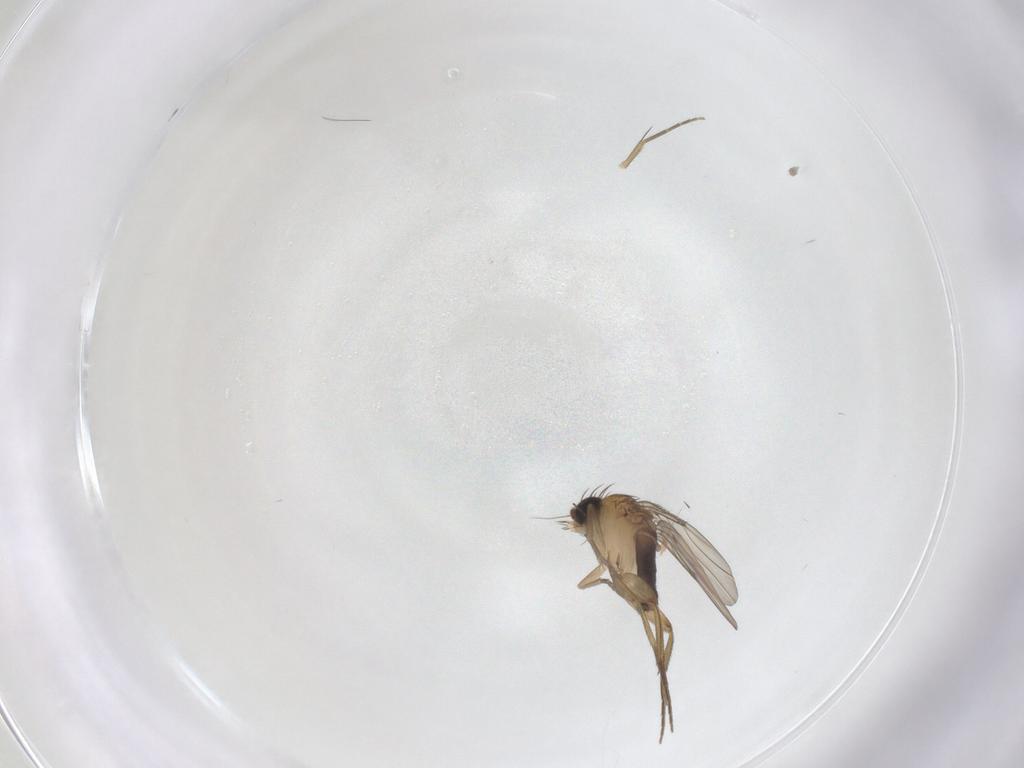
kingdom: Animalia
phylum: Arthropoda
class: Insecta
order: Diptera
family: Phoridae
